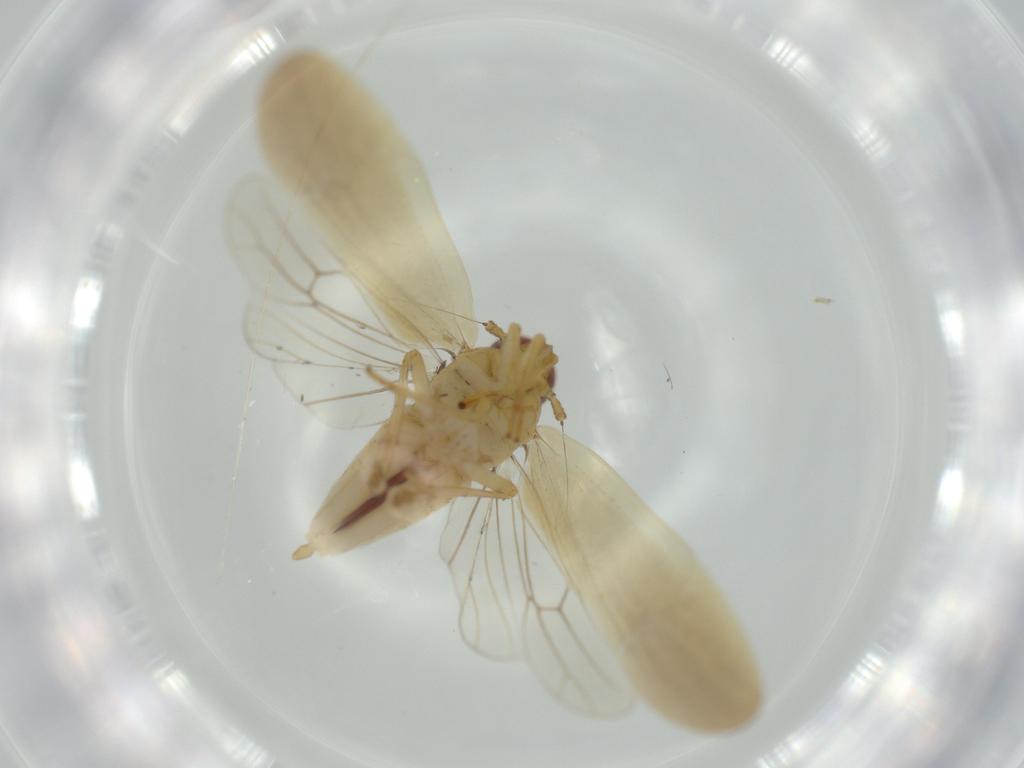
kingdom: Animalia
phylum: Arthropoda
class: Insecta
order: Hemiptera
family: Delphacidae
